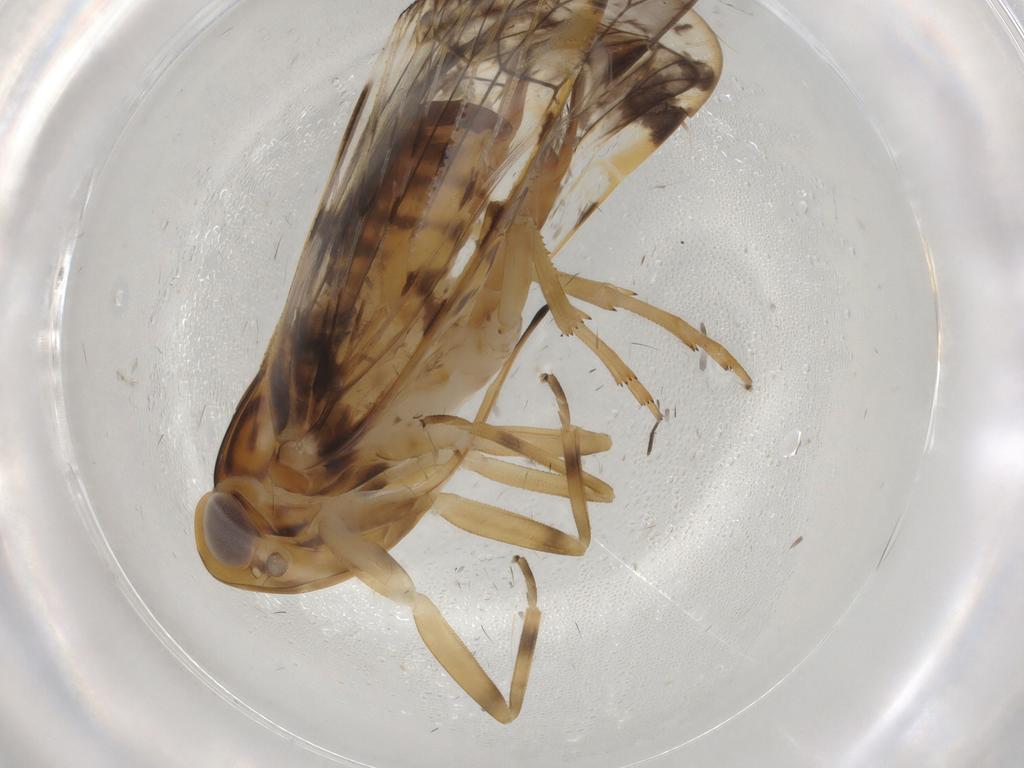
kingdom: Animalia
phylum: Arthropoda
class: Insecta
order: Hemiptera
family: Cixiidae
